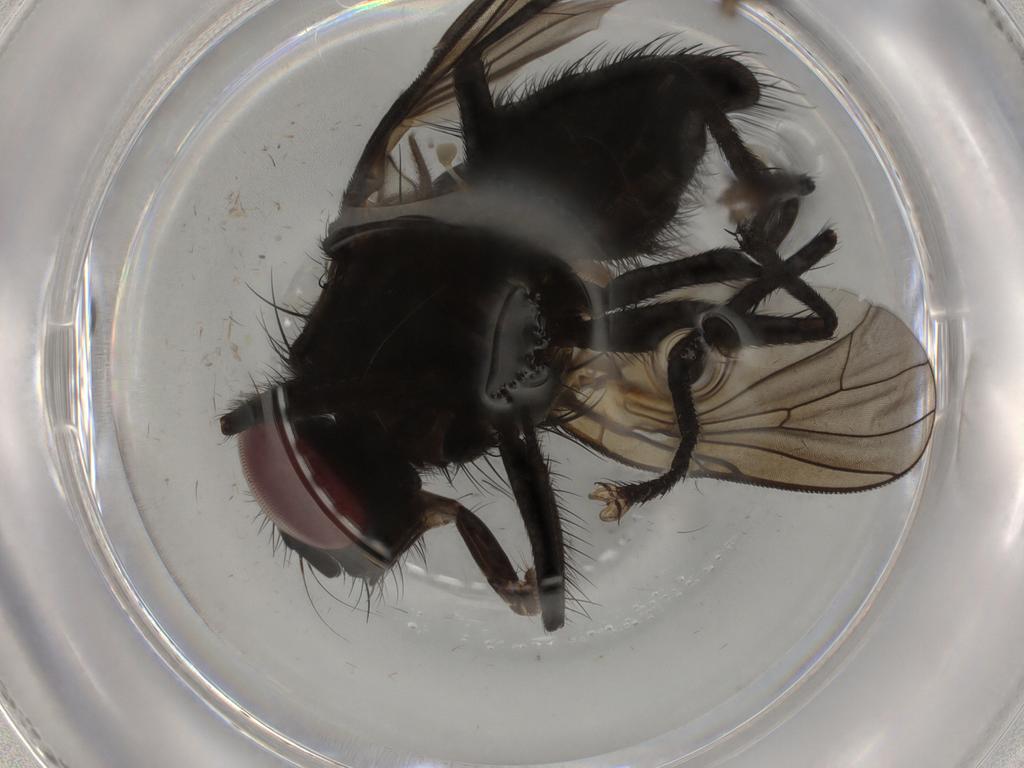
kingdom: Animalia
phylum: Arthropoda
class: Insecta
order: Diptera
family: Muscidae
